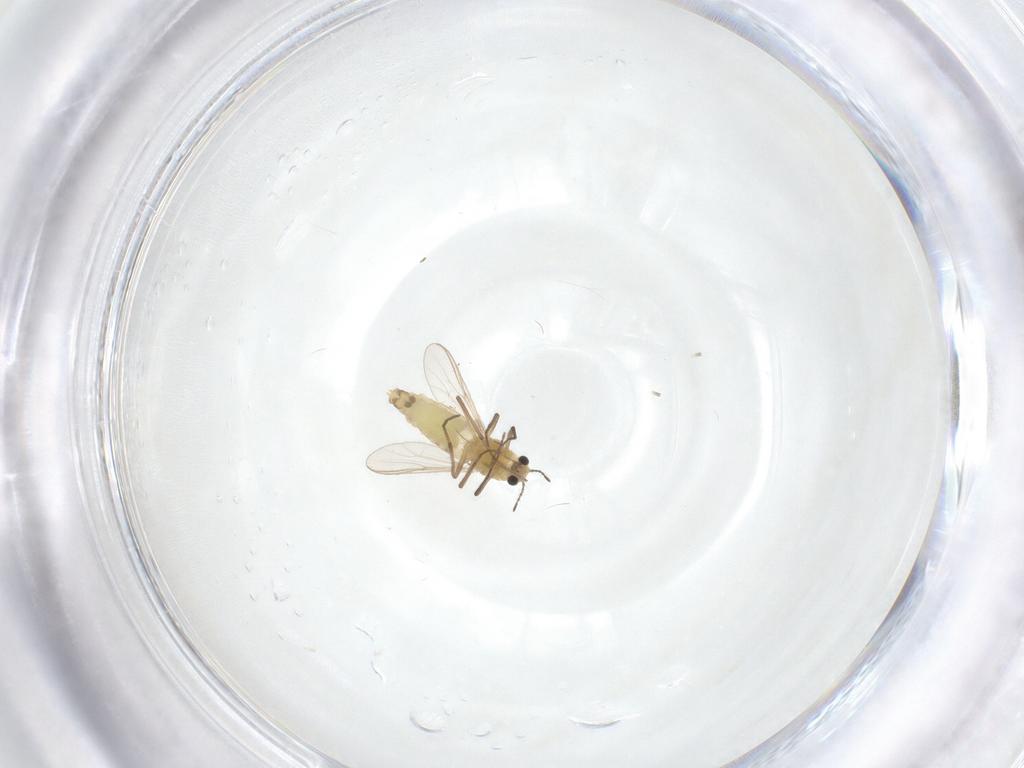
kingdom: Animalia
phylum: Arthropoda
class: Insecta
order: Diptera
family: Chironomidae
